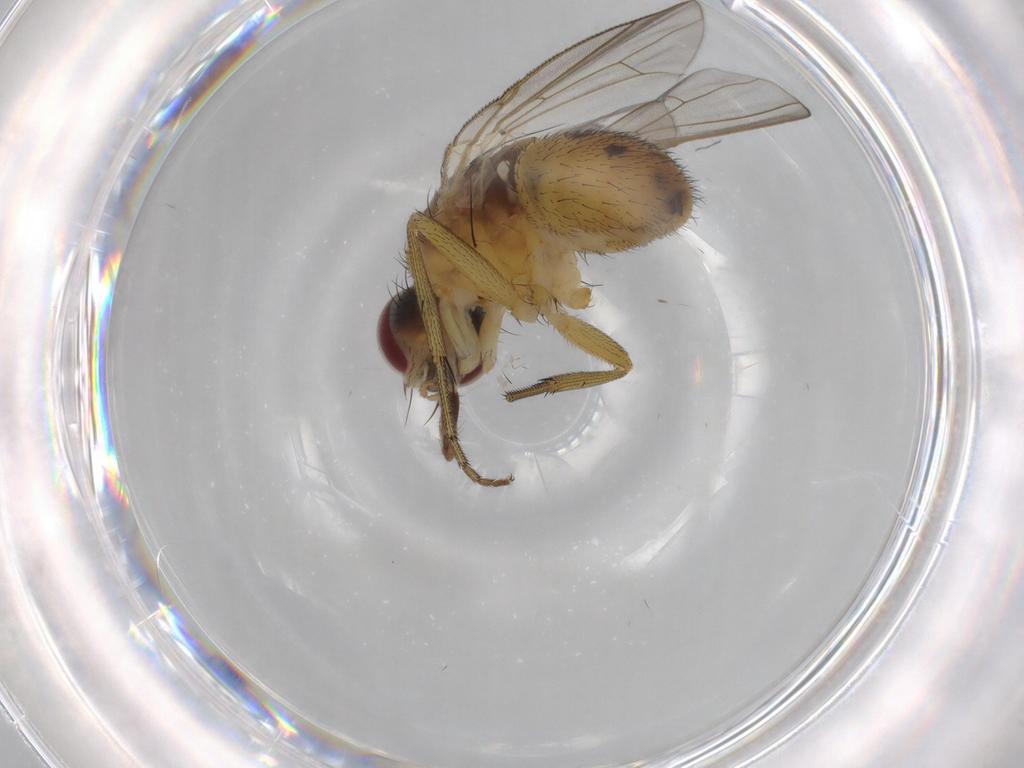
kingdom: Animalia
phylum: Arthropoda
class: Insecta
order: Diptera
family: Muscidae
